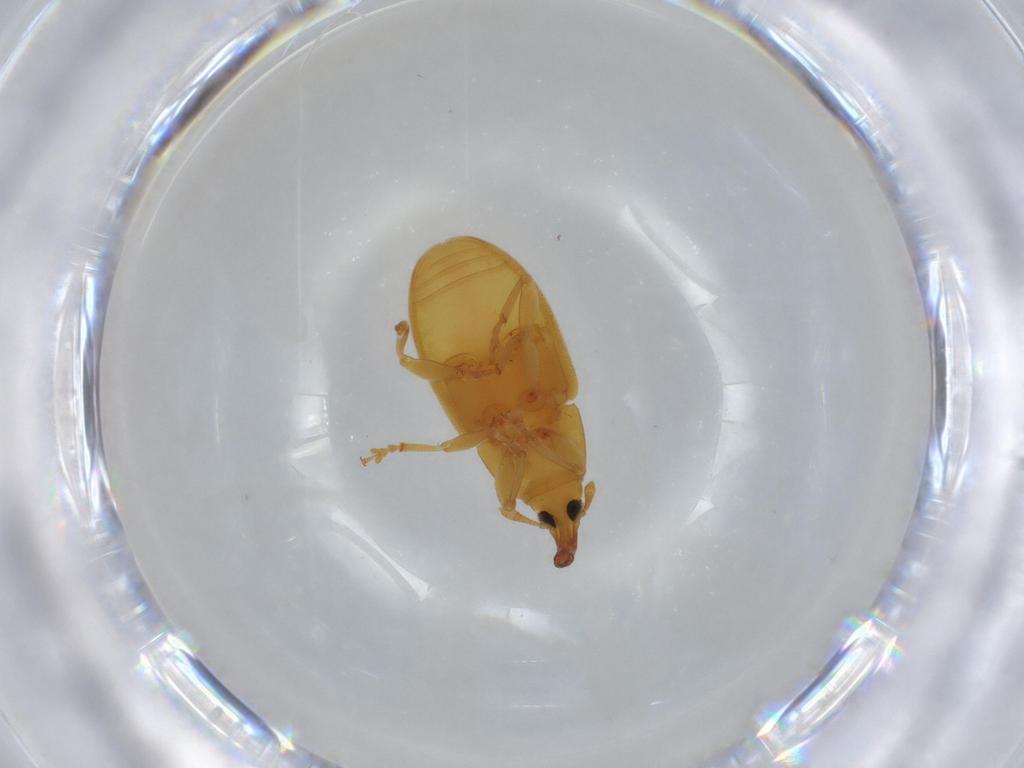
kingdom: Animalia
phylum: Arthropoda
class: Insecta
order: Coleoptera
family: Curculionidae
